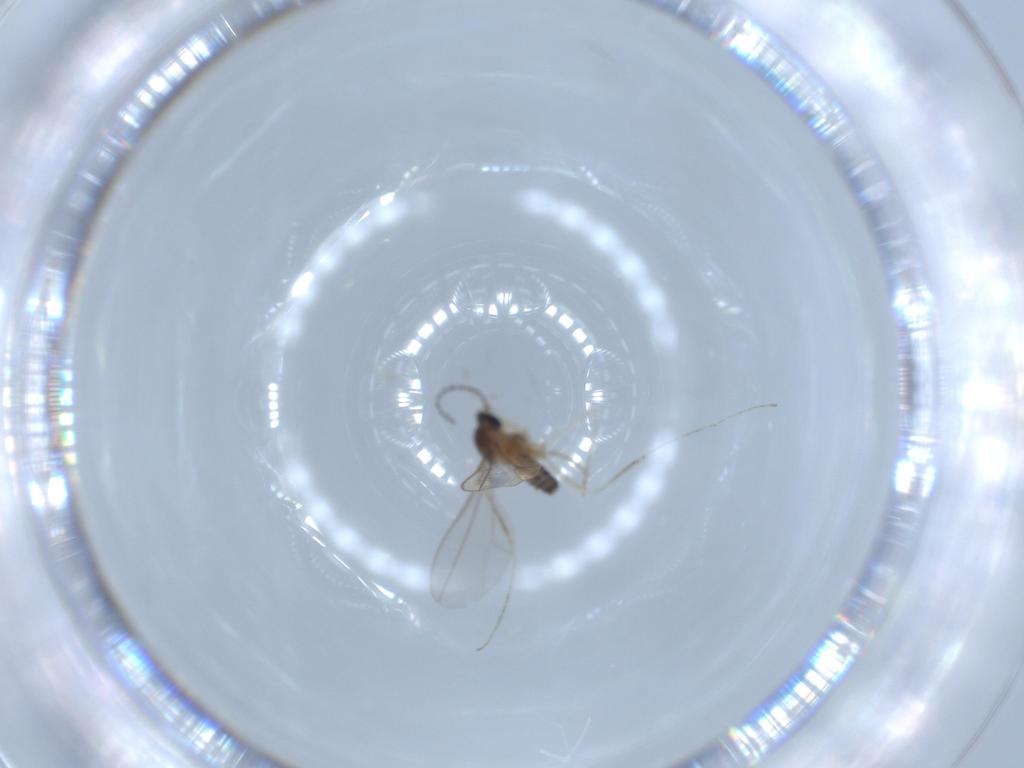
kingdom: Animalia
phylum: Arthropoda
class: Insecta
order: Diptera
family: Cecidomyiidae
